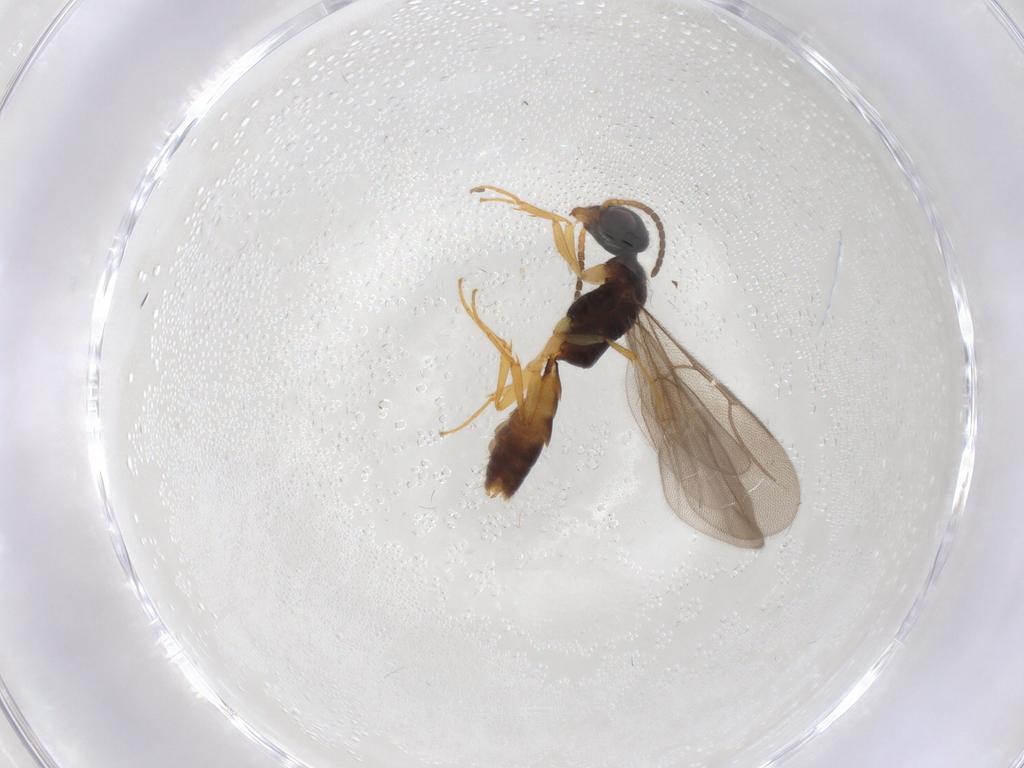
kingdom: Animalia
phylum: Arthropoda
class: Insecta
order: Hymenoptera
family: Bethylidae
